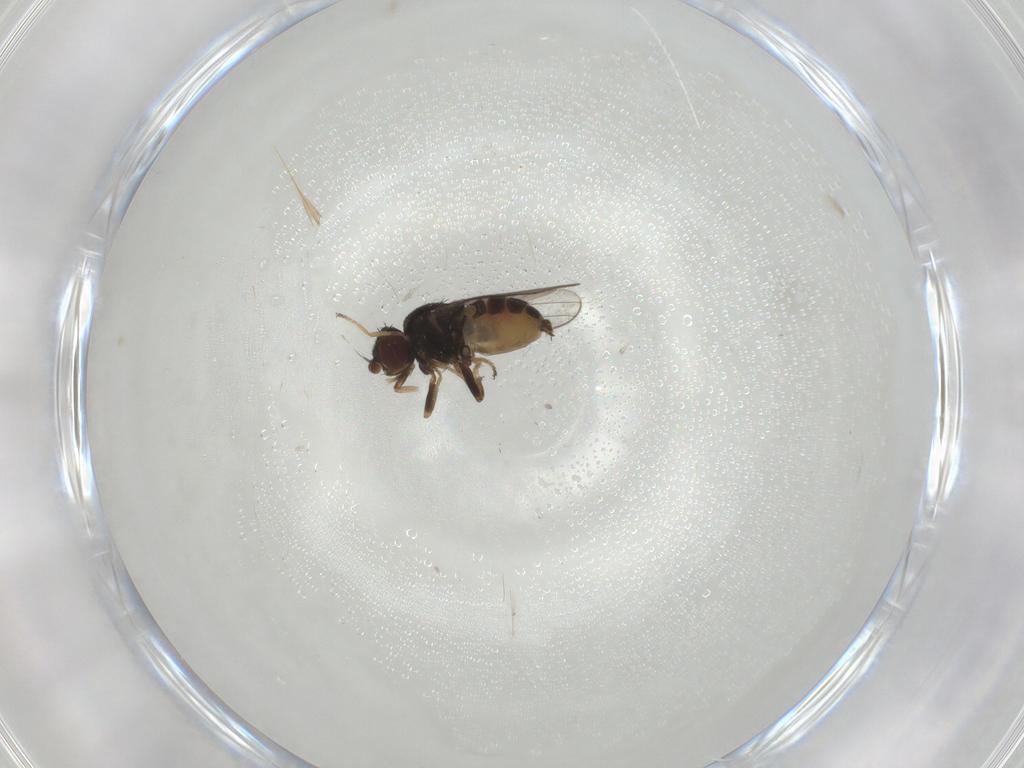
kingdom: Animalia
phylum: Arthropoda
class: Insecta
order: Diptera
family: Chloropidae
